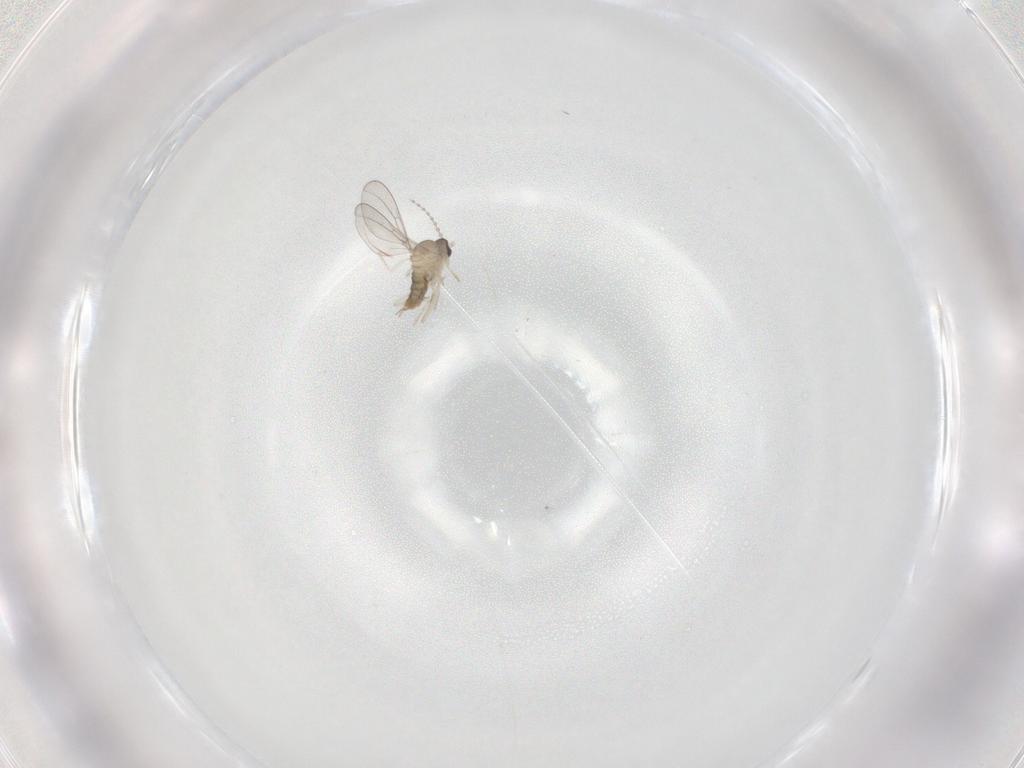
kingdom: Animalia
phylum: Arthropoda
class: Insecta
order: Diptera
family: Cecidomyiidae
